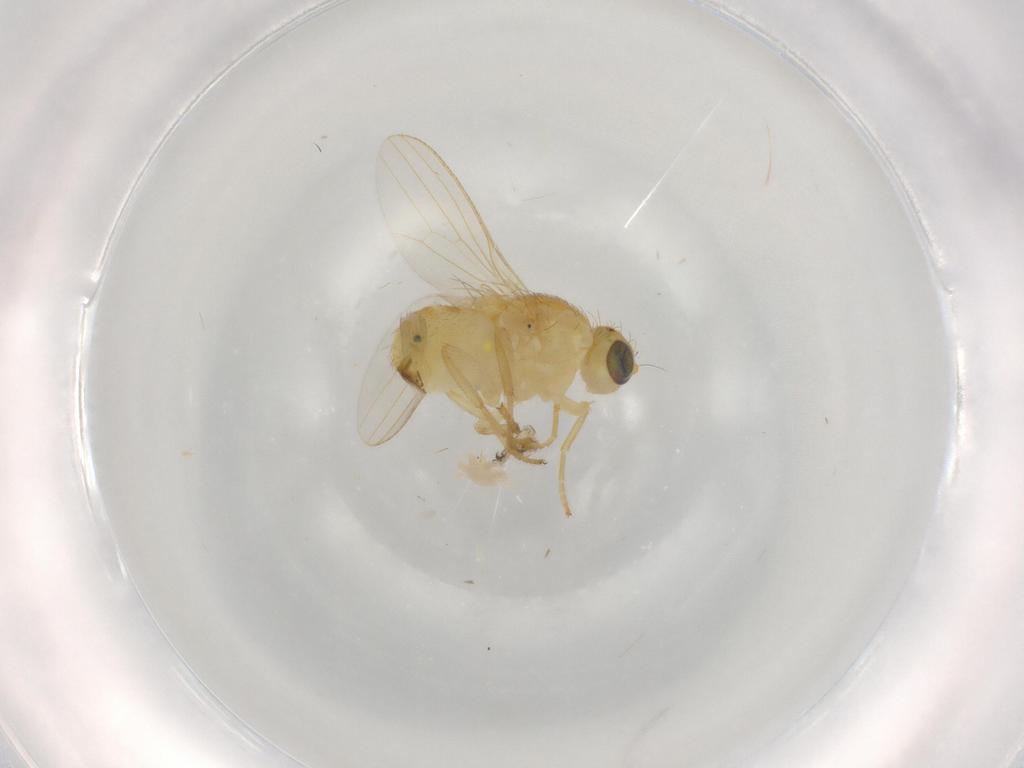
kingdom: Animalia
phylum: Arthropoda
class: Insecta
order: Diptera
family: Chyromyidae
